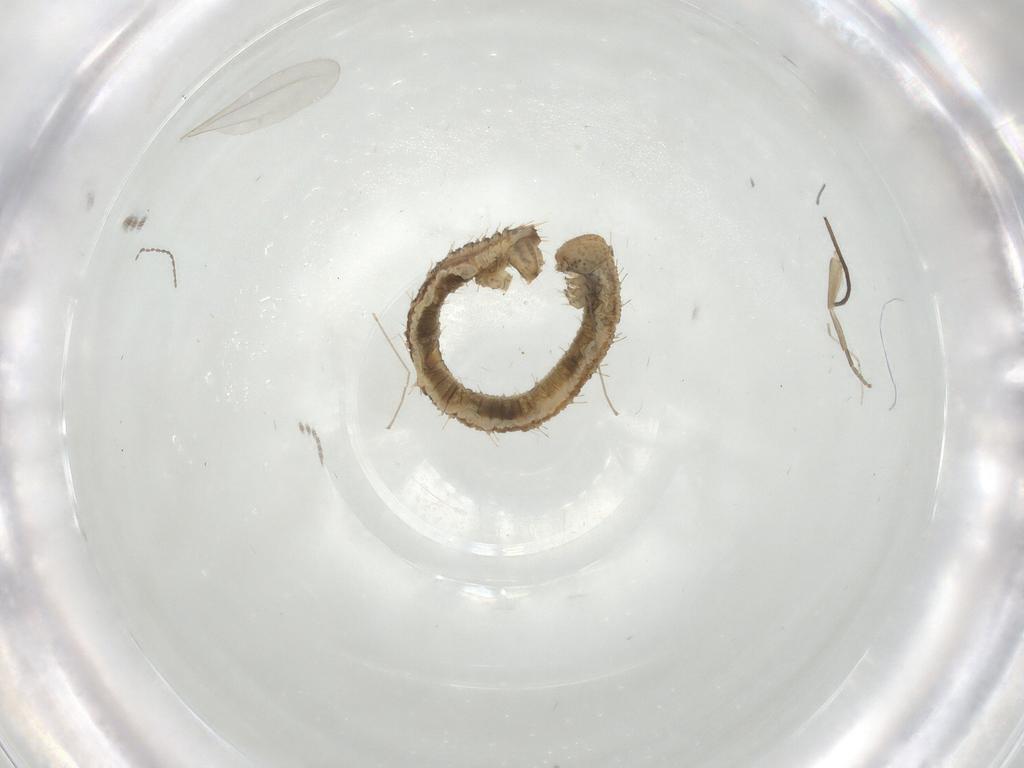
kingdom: Animalia
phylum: Arthropoda
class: Insecta
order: Lepidoptera
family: Geometridae
